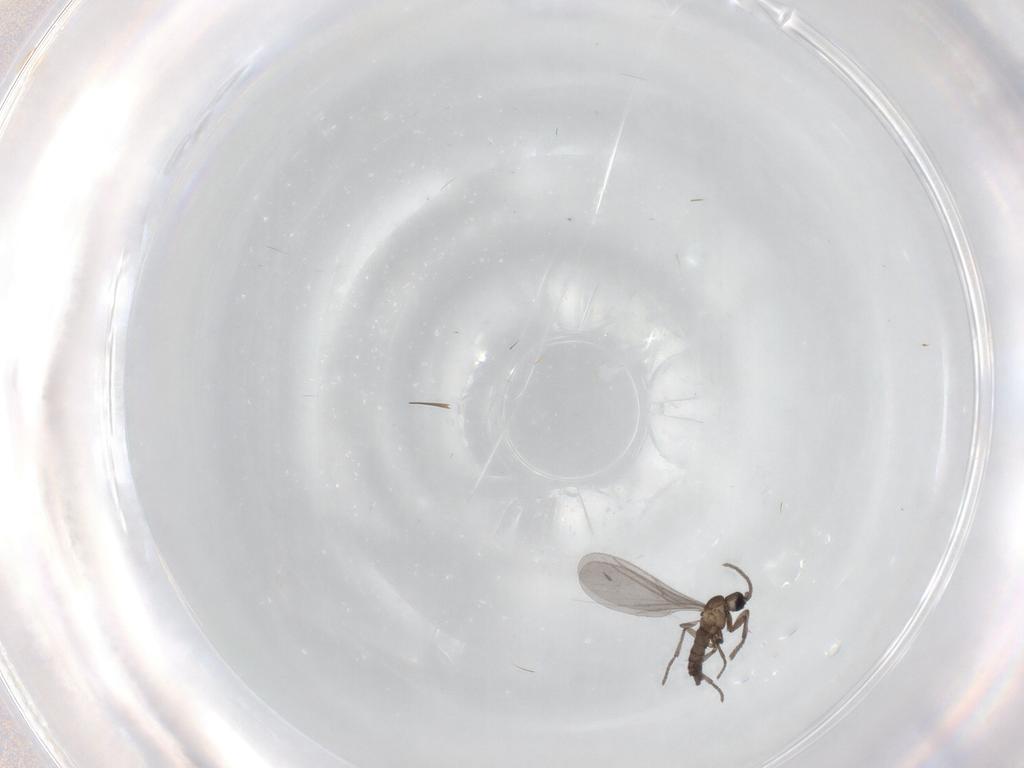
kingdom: Animalia
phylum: Arthropoda
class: Insecta
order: Diptera
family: Sciaridae
